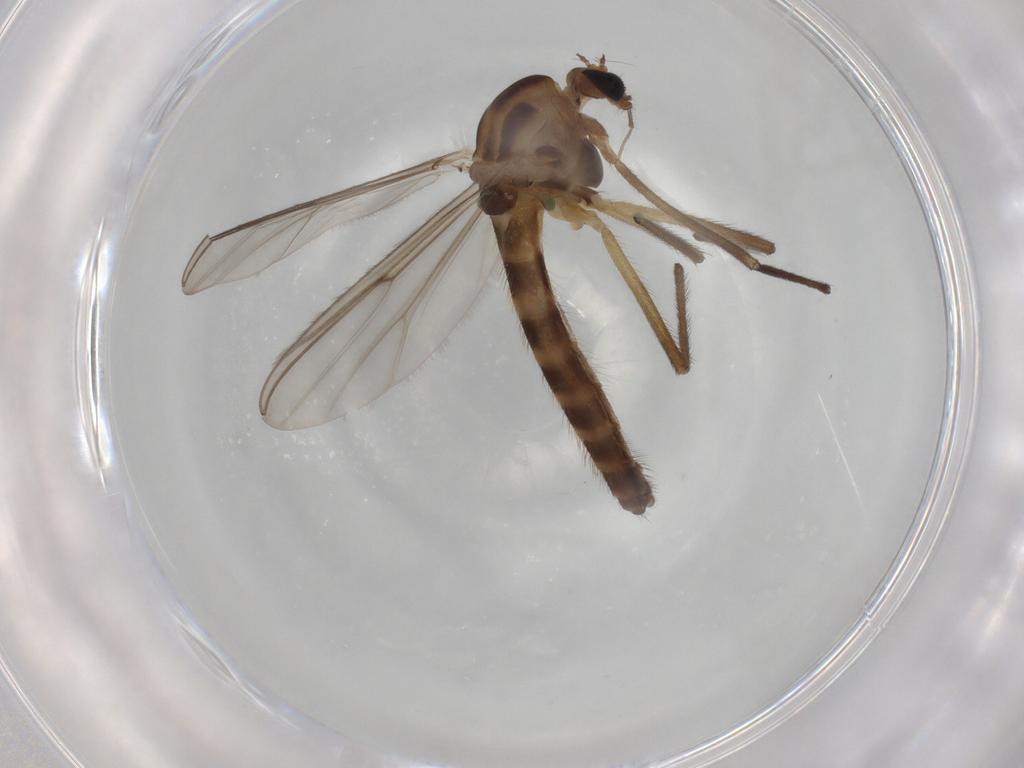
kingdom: Animalia
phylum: Arthropoda
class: Insecta
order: Diptera
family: Chironomidae
